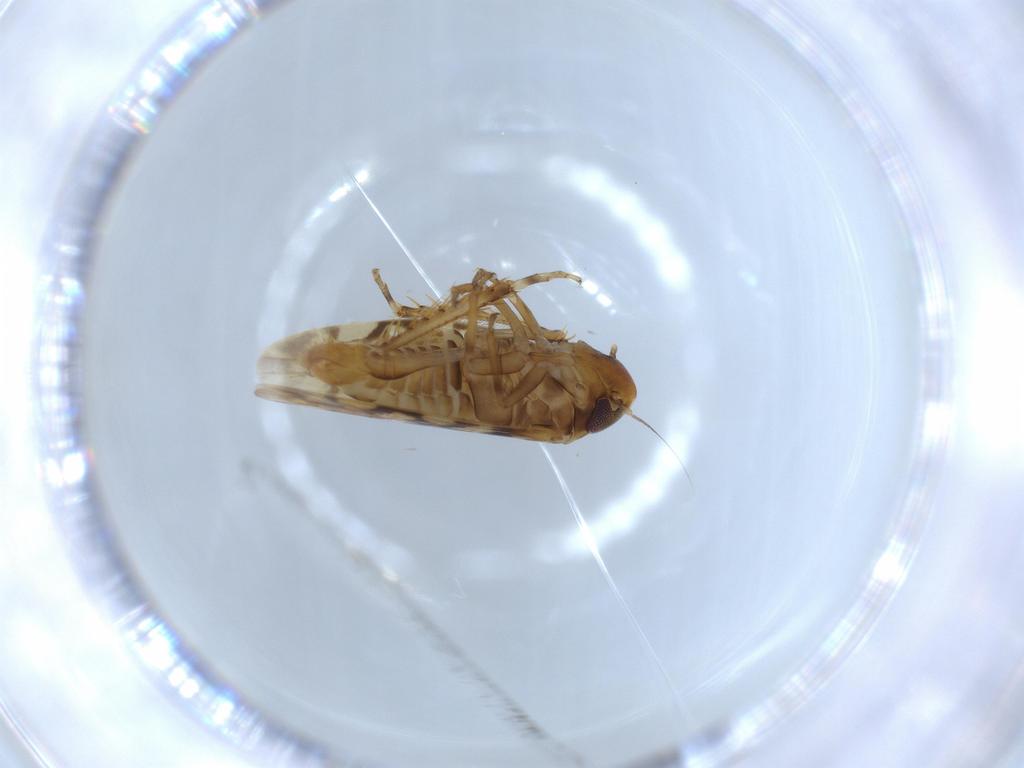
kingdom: Animalia
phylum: Arthropoda
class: Insecta
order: Hemiptera
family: Cicadellidae
